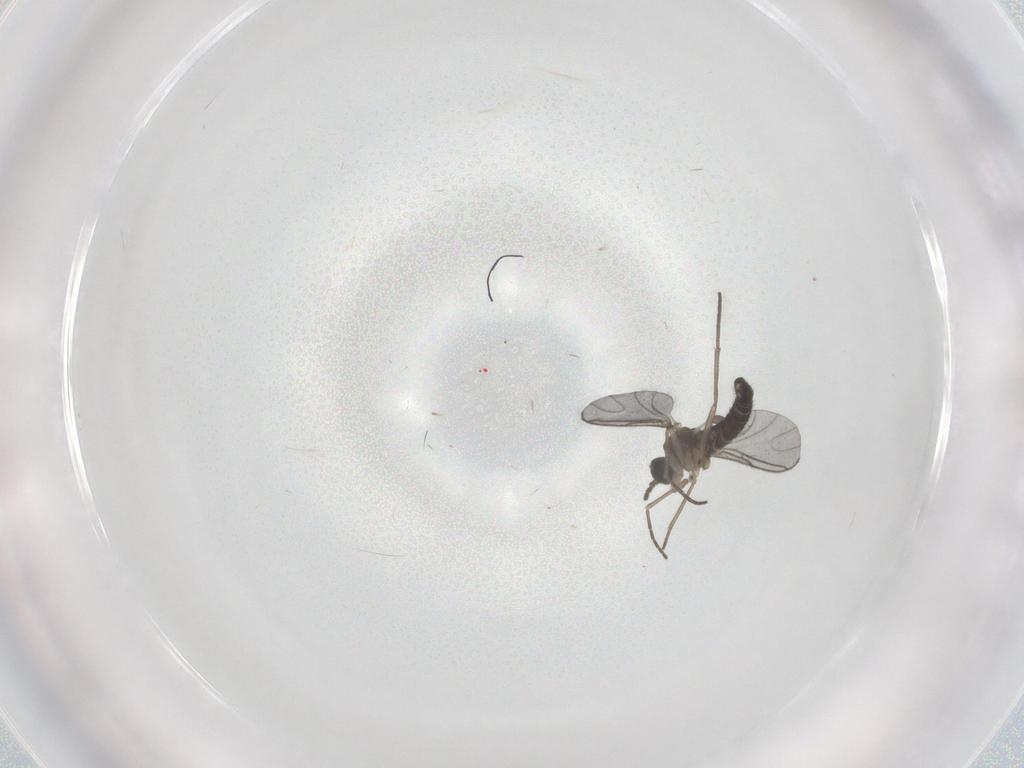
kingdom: Animalia
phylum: Arthropoda
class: Insecta
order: Diptera
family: Sciaridae
